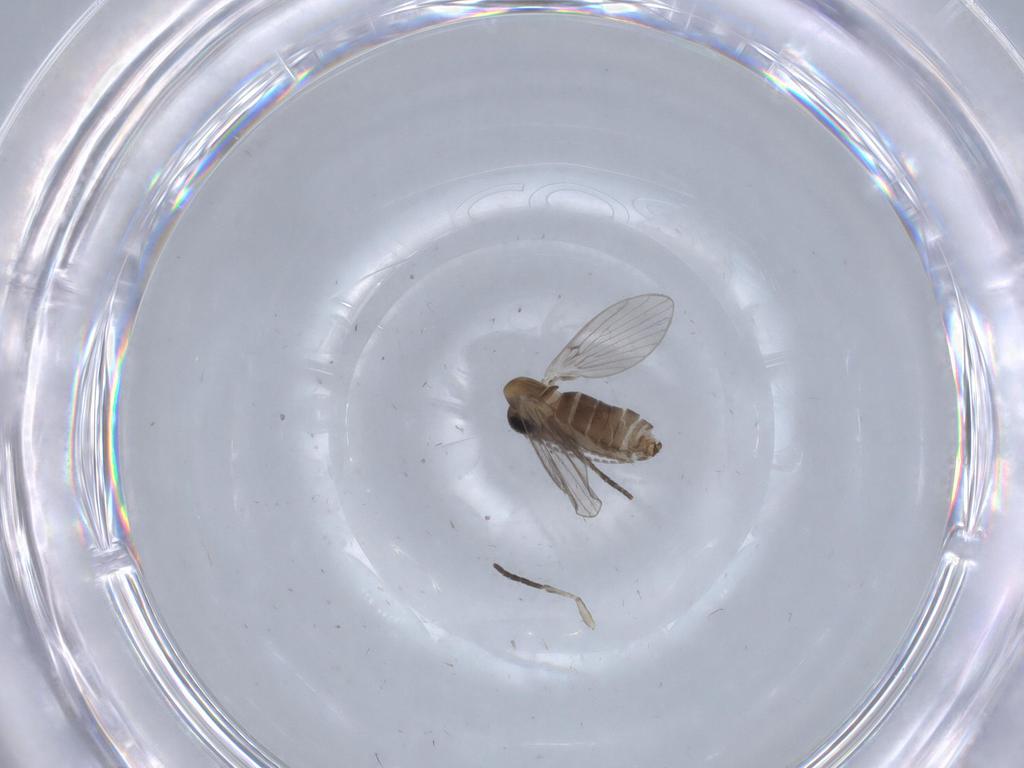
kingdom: Animalia
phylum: Arthropoda
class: Insecta
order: Diptera
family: Psychodidae
